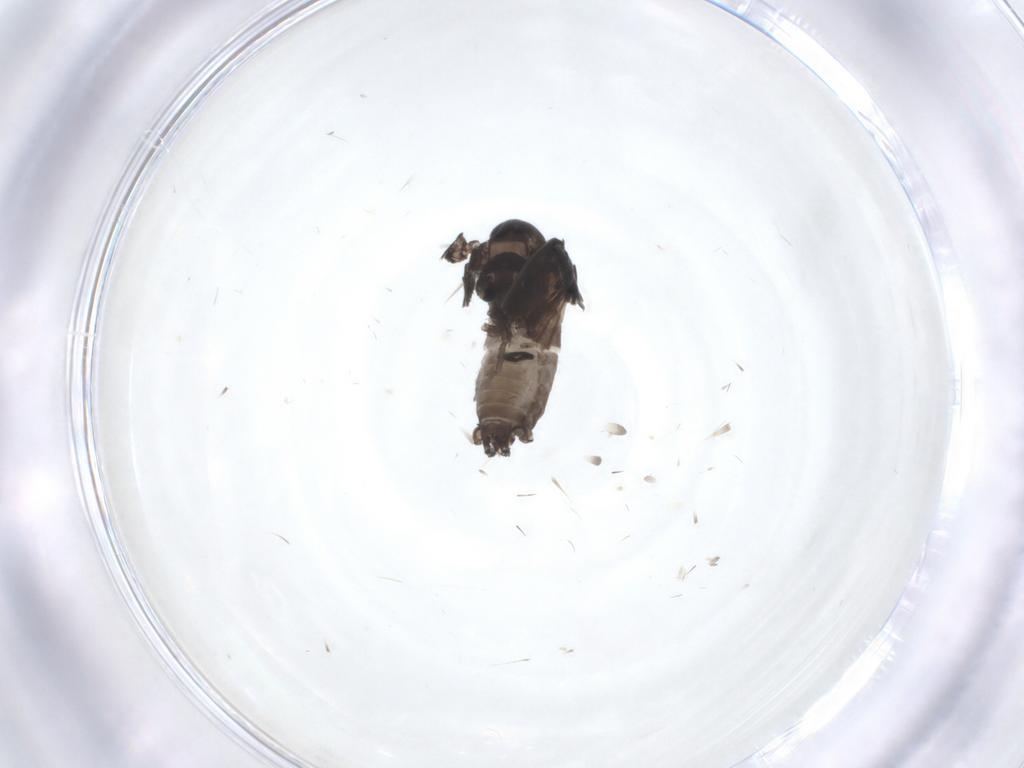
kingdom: Animalia
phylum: Arthropoda
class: Insecta
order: Diptera
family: Psychodidae
